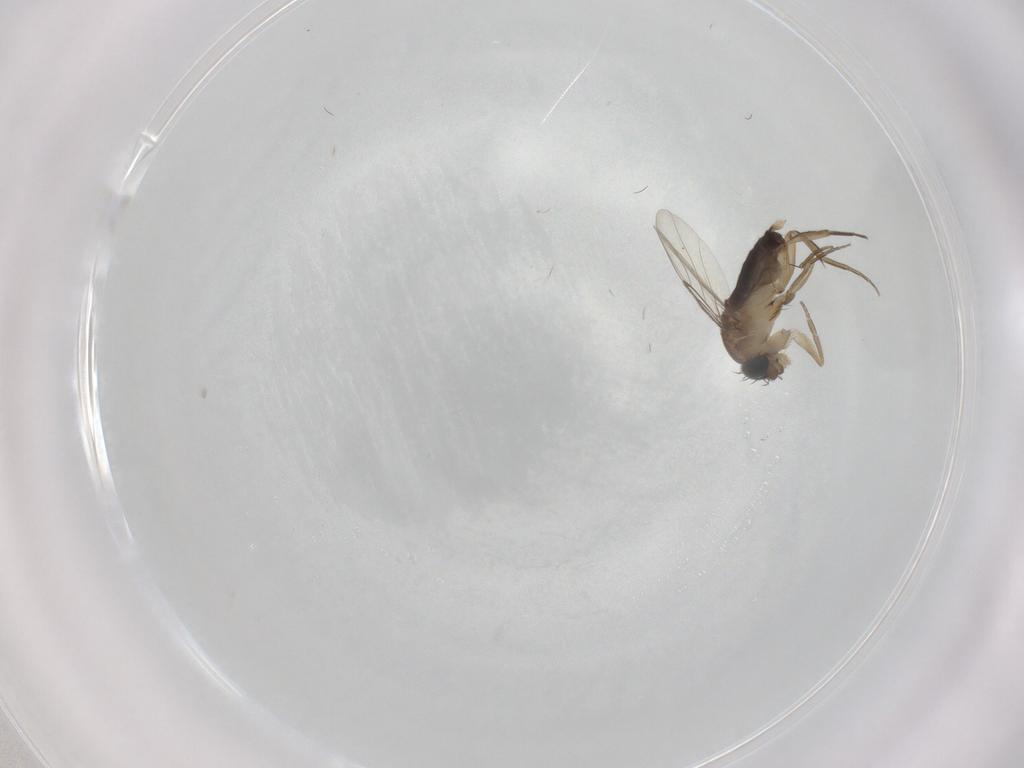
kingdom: Animalia
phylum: Arthropoda
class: Insecta
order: Diptera
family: Phoridae
